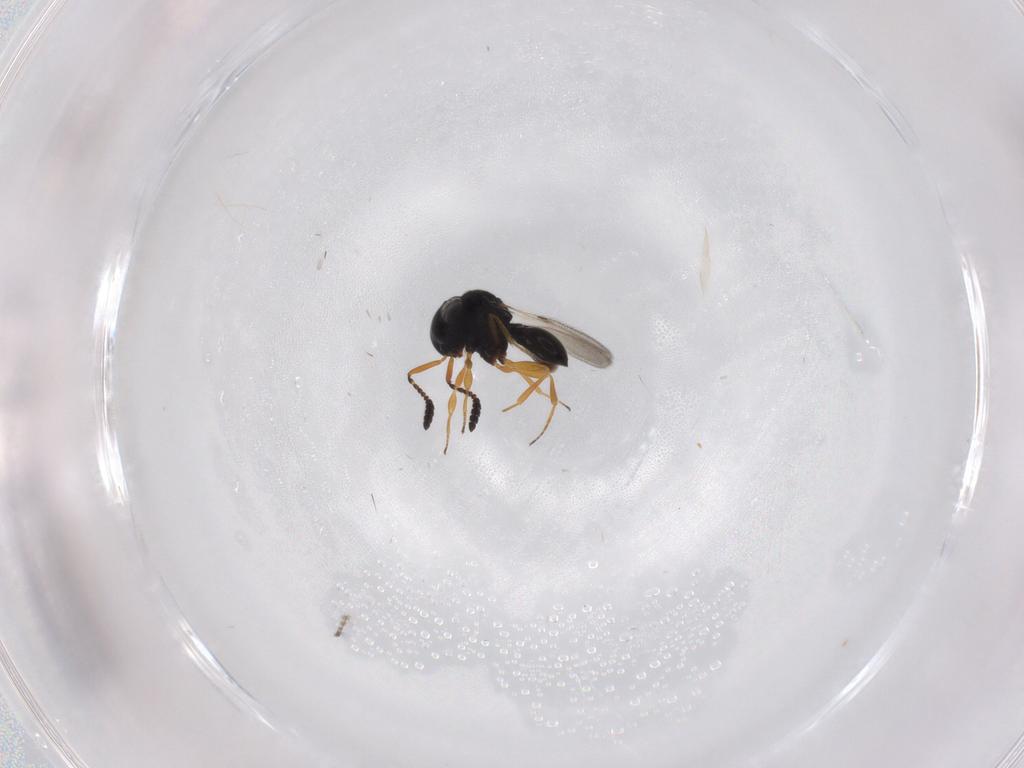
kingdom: Animalia
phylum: Arthropoda
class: Insecta
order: Hymenoptera
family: Scelionidae
